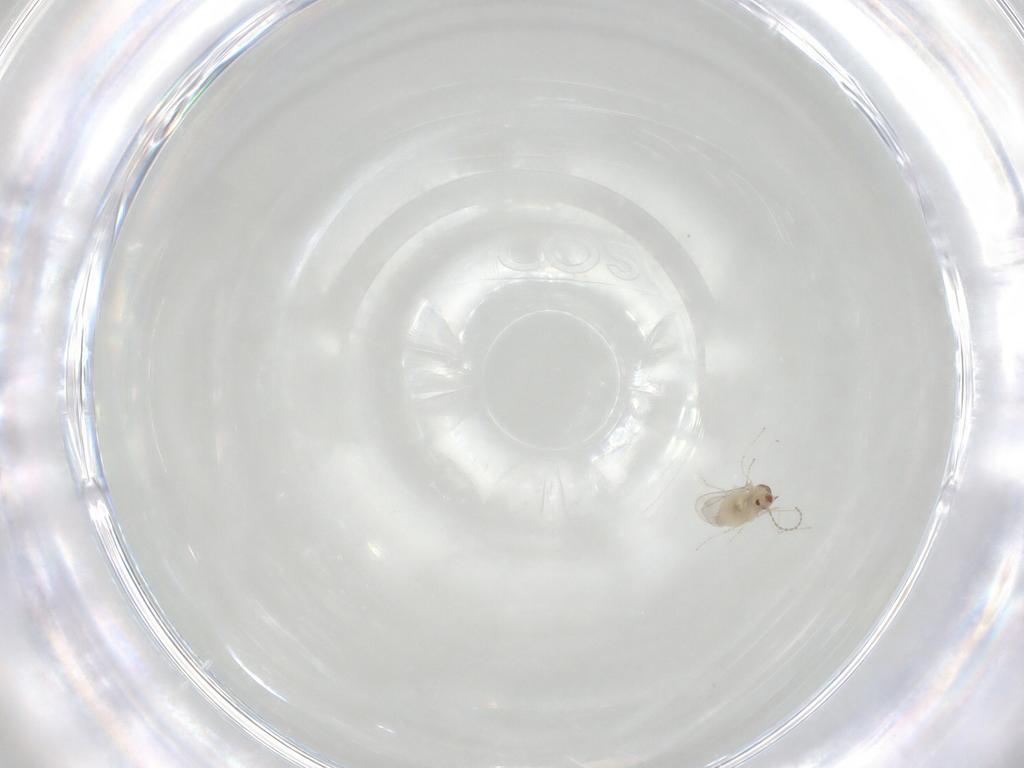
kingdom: Animalia
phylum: Arthropoda
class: Insecta
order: Diptera
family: Cecidomyiidae
